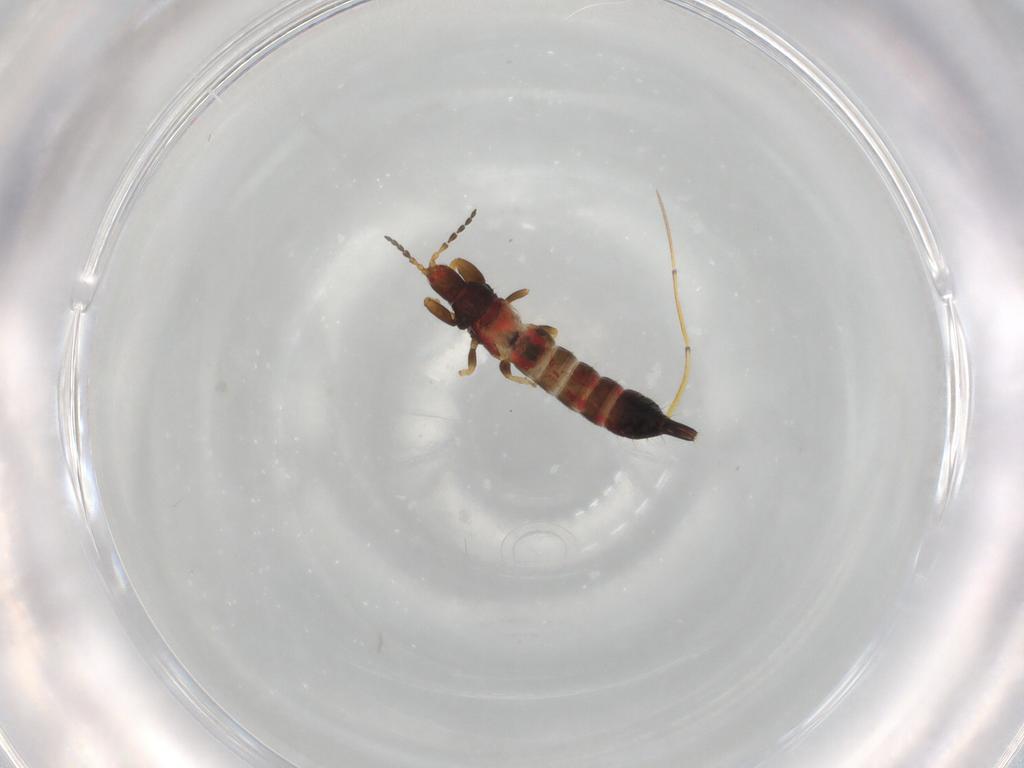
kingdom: Animalia
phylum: Arthropoda
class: Insecta
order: Thysanoptera
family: Phlaeothripidae
